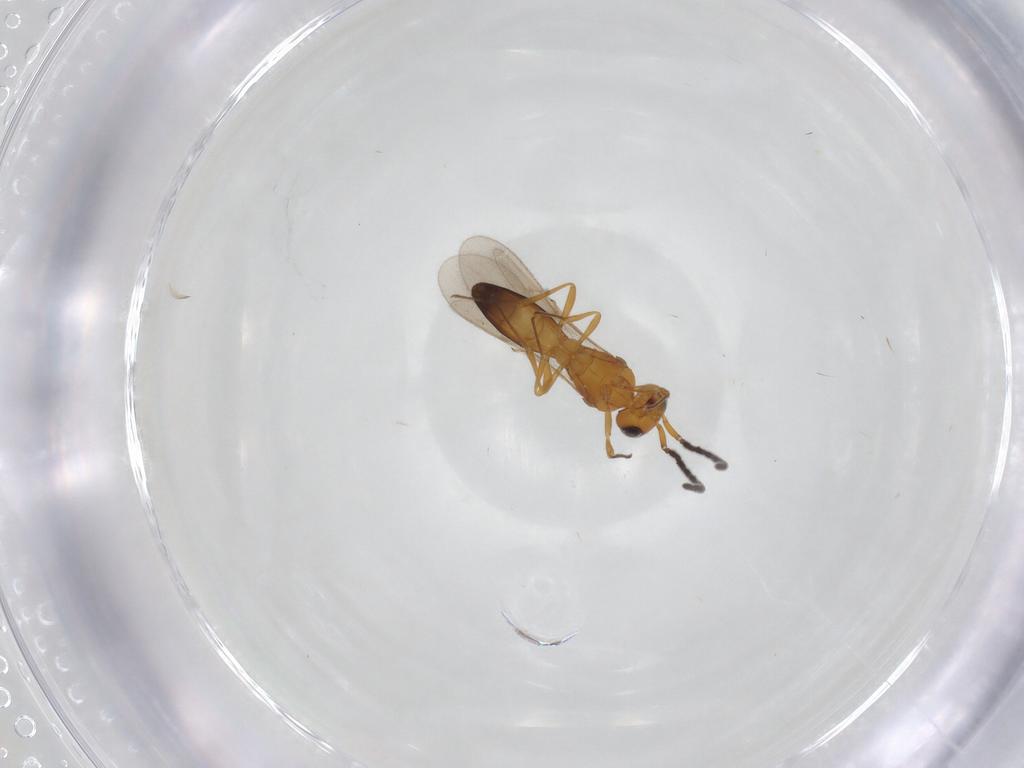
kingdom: Animalia
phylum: Arthropoda
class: Insecta
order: Hymenoptera
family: Scelionidae
